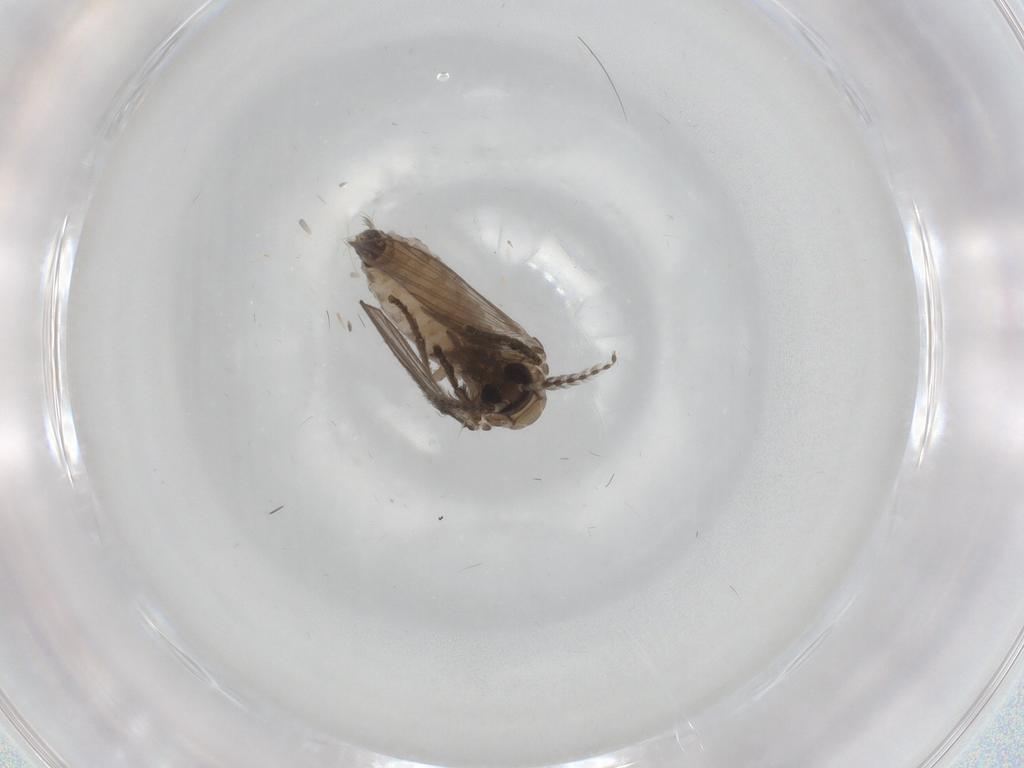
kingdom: Animalia
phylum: Arthropoda
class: Insecta
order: Diptera
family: Psychodidae
